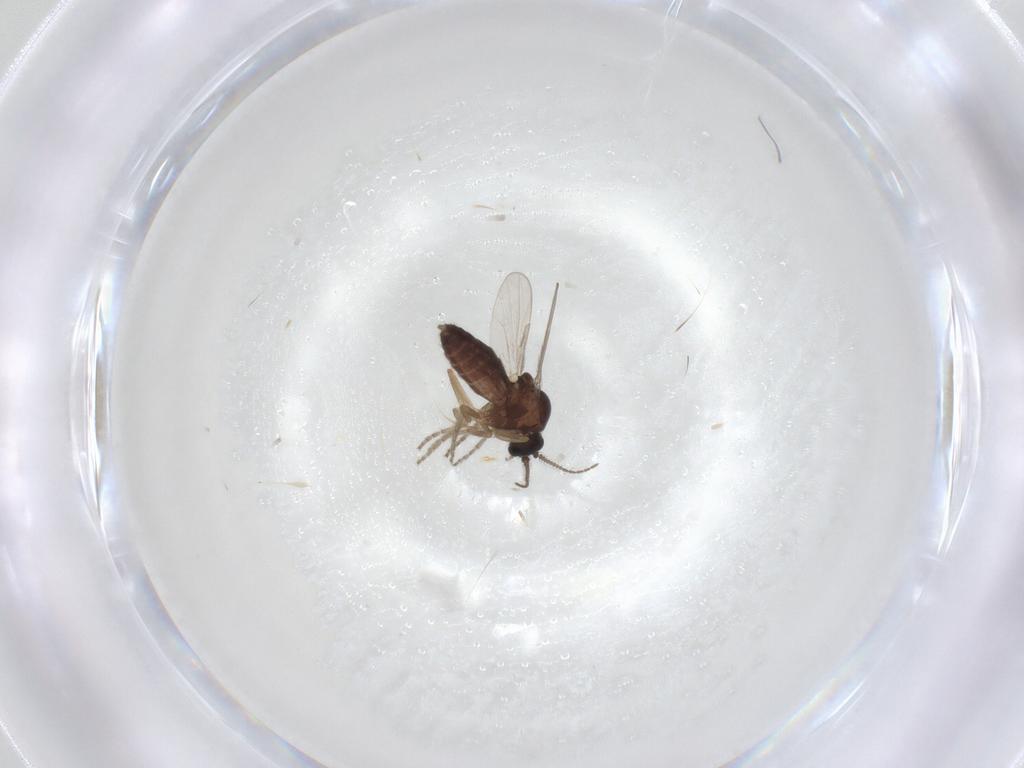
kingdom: Animalia
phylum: Arthropoda
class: Insecta
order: Diptera
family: Ceratopogonidae
